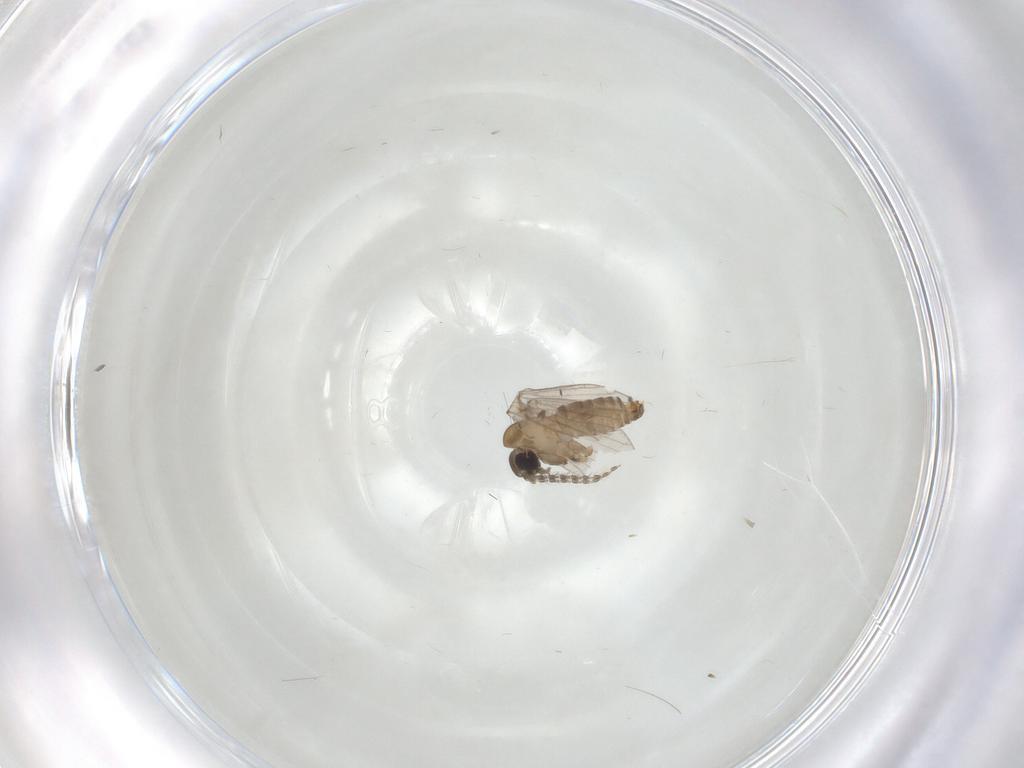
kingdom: Animalia
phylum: Arthropoda
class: Insecta
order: Diptera
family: Psychodidae
